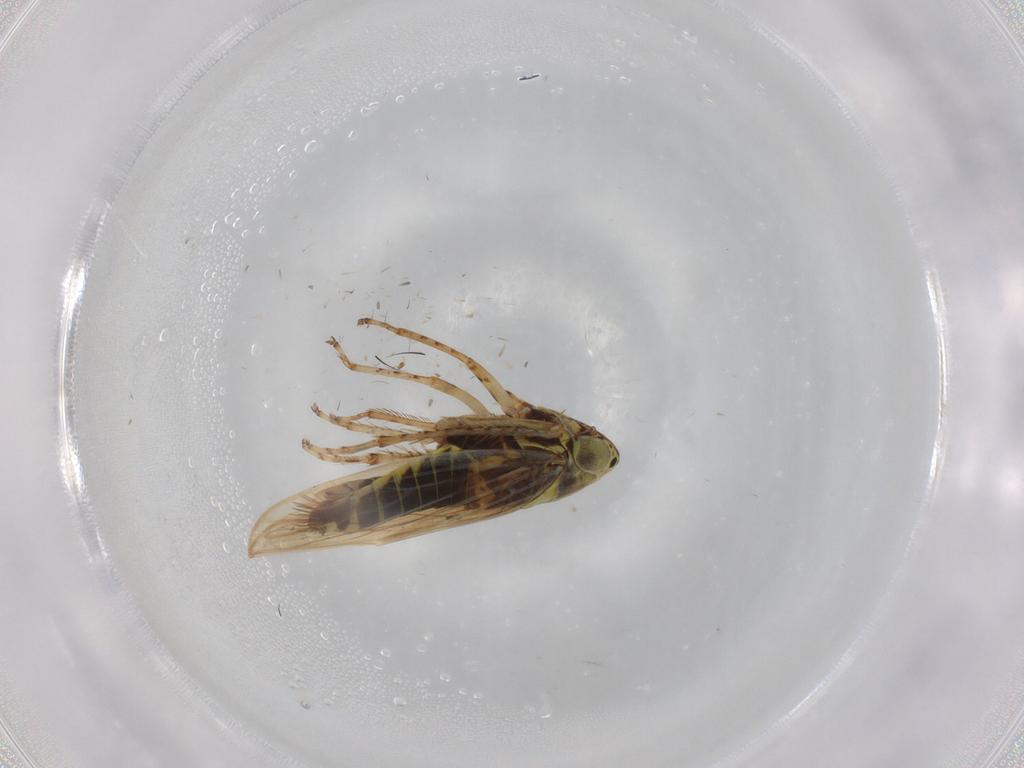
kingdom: Animalia
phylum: Arthropoda
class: Insecta
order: Hemiptera
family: Cicadellidae
